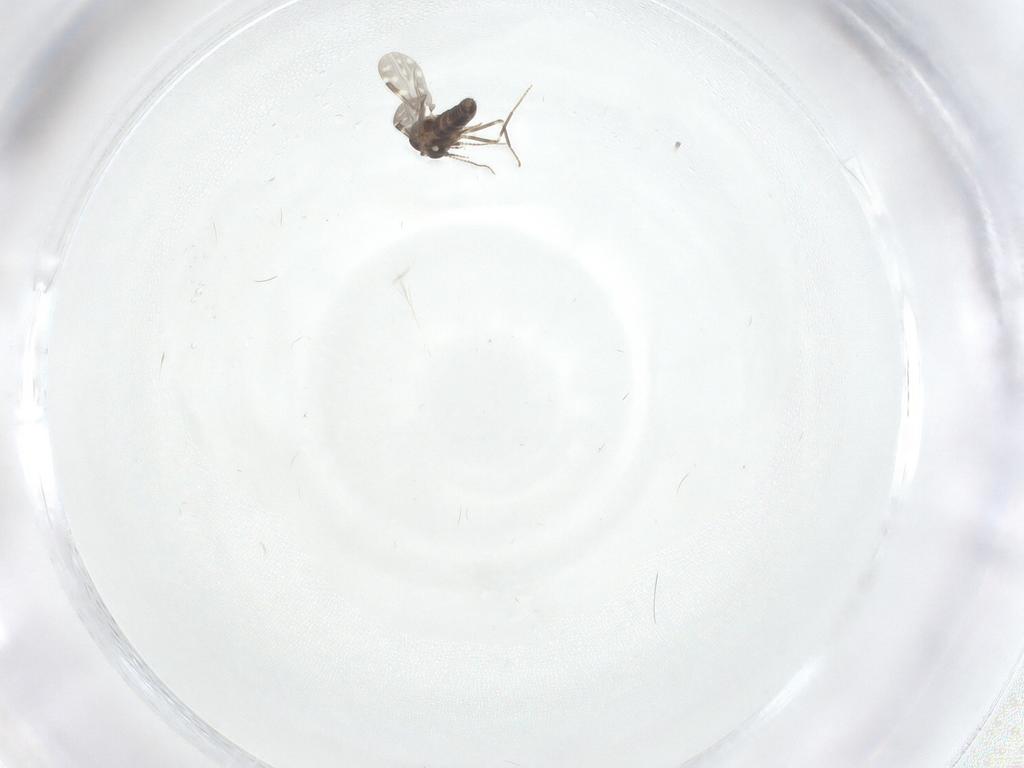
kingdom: Animalia
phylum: Arthropoda
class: Insecta
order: Diptera
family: Ceratopogonidae
